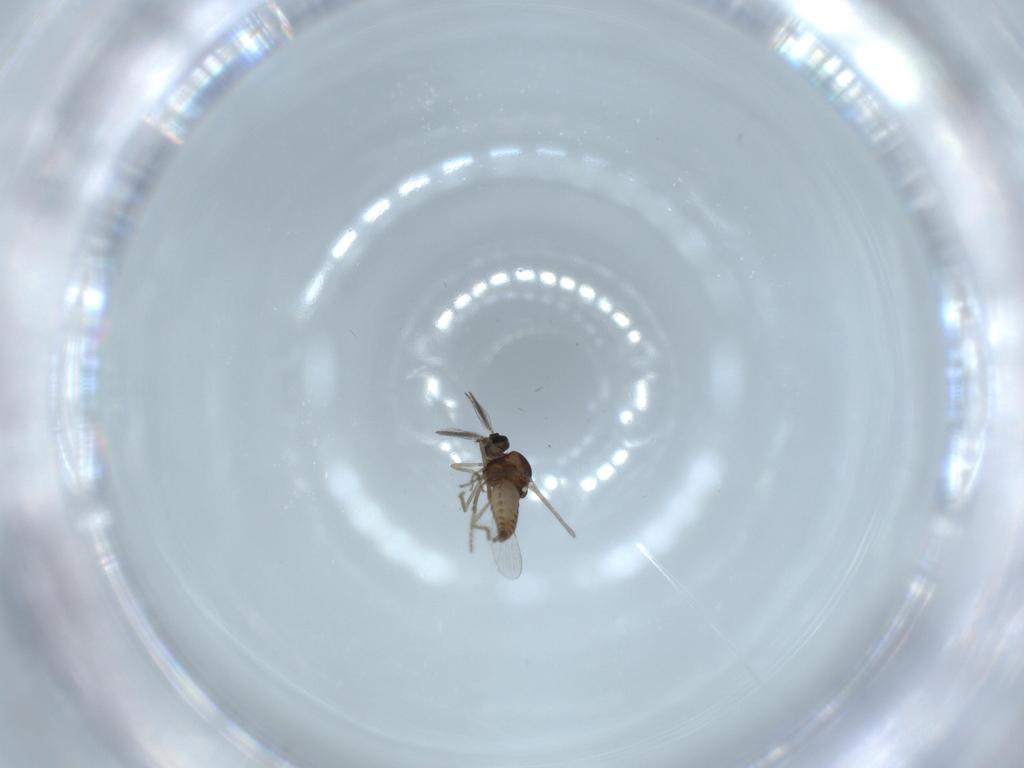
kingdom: Animalia
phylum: Arthropoda
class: Insecta
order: Diptera
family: Ceratopogonidae
